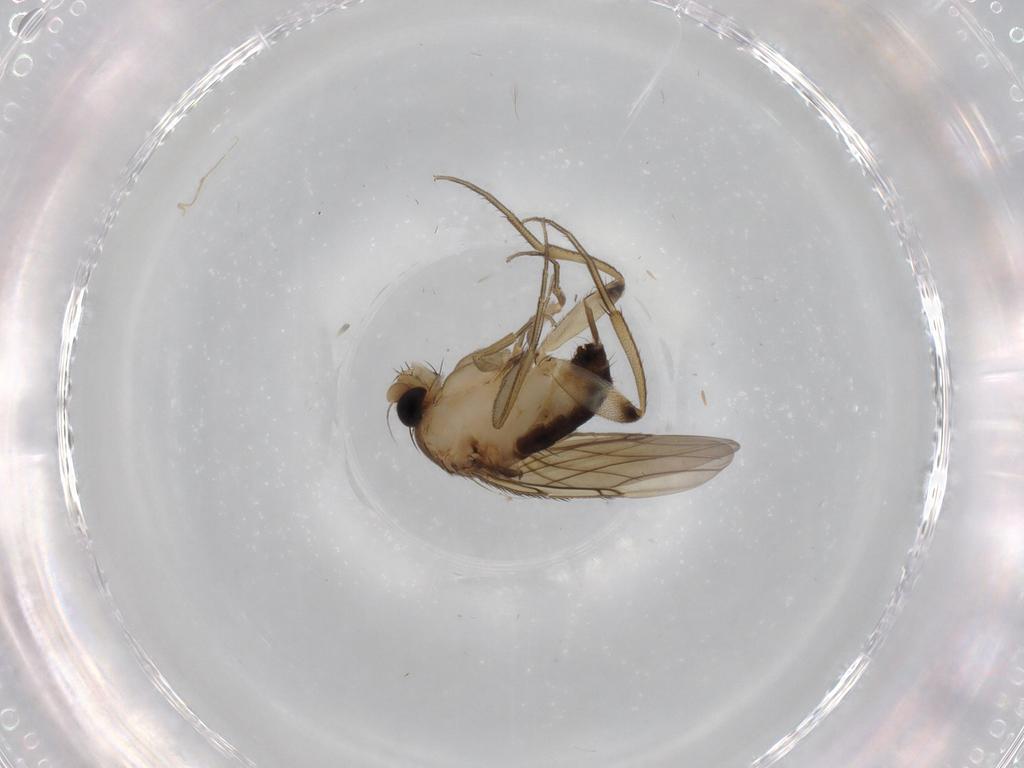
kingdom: Animalia
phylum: Arthropoda
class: Insecta
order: Diptera
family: Phoridae
